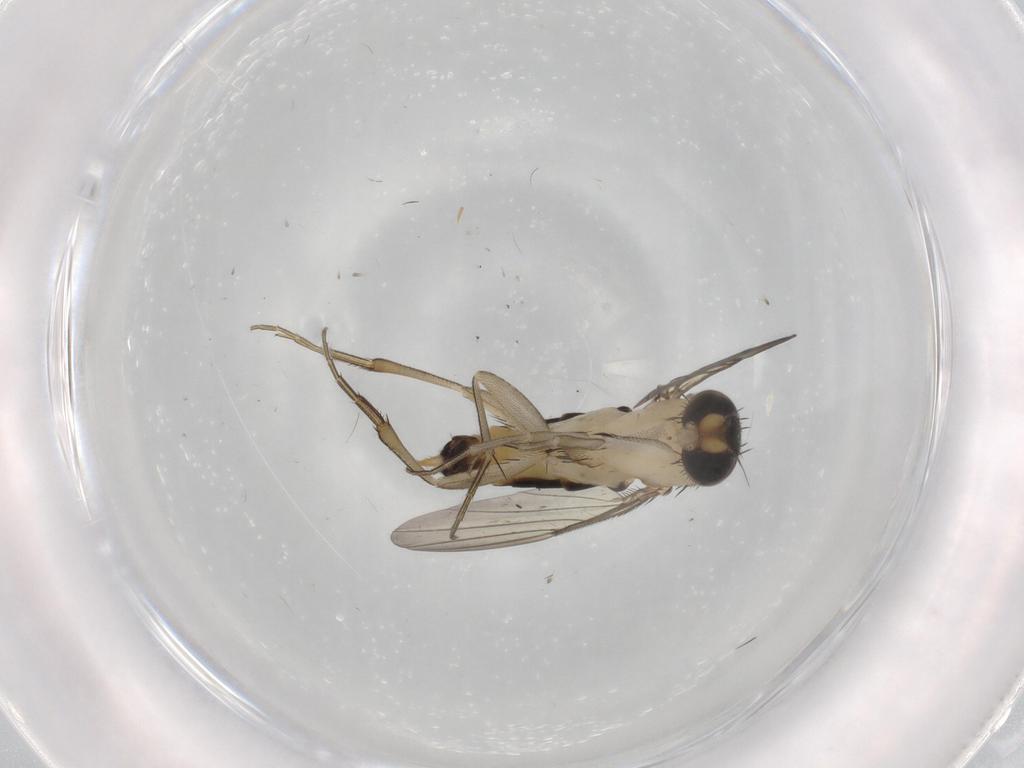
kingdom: Animalia
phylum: Arthropoda
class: Insecta
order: Diptera
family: Phoridae
